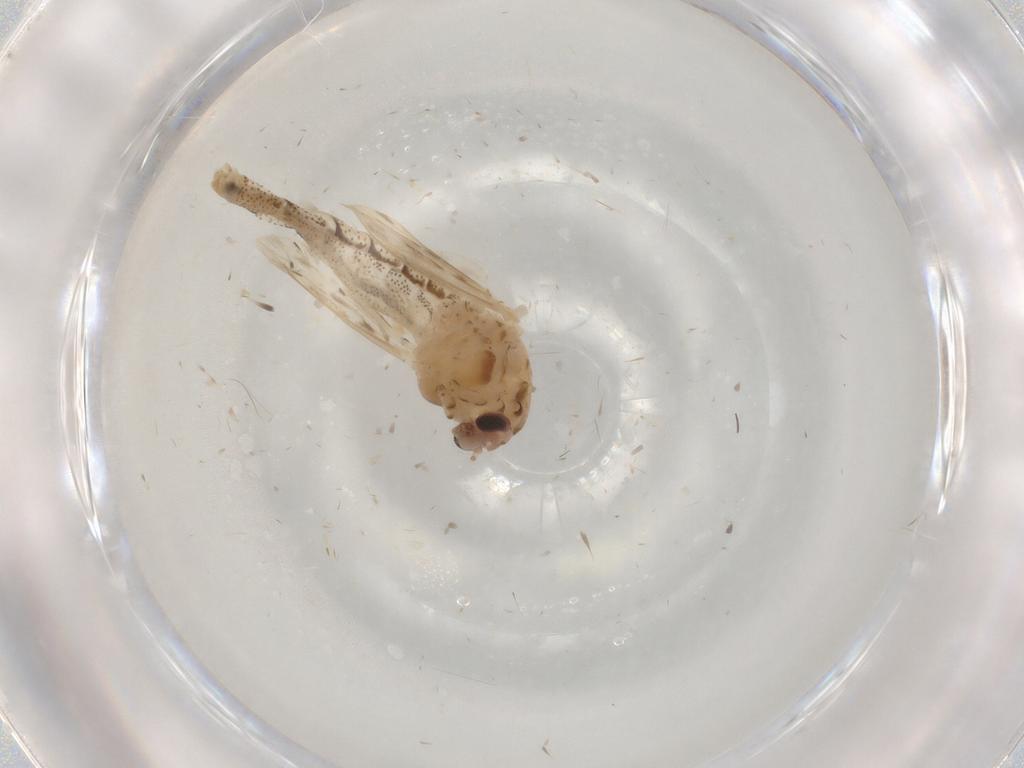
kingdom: Animalia
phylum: Arthropoda
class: Insecta
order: Diptera
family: Chaoboridae
